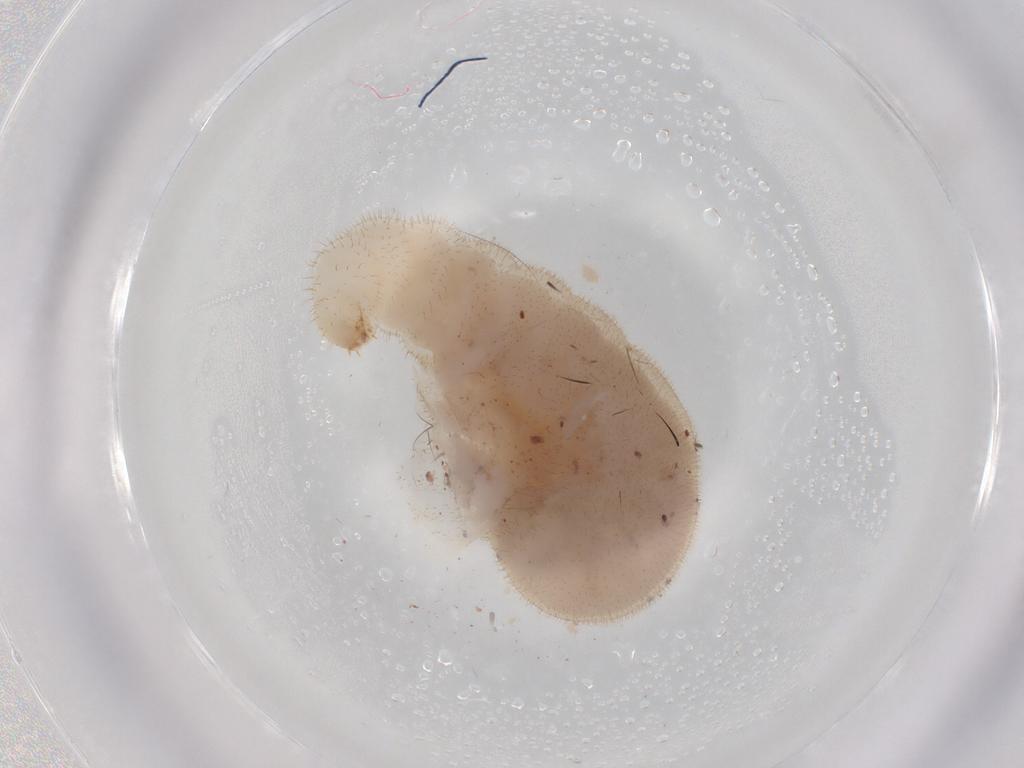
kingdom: Animalia
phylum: Arthropoda
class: Insecta
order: Hymenoptera
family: Formicidae
